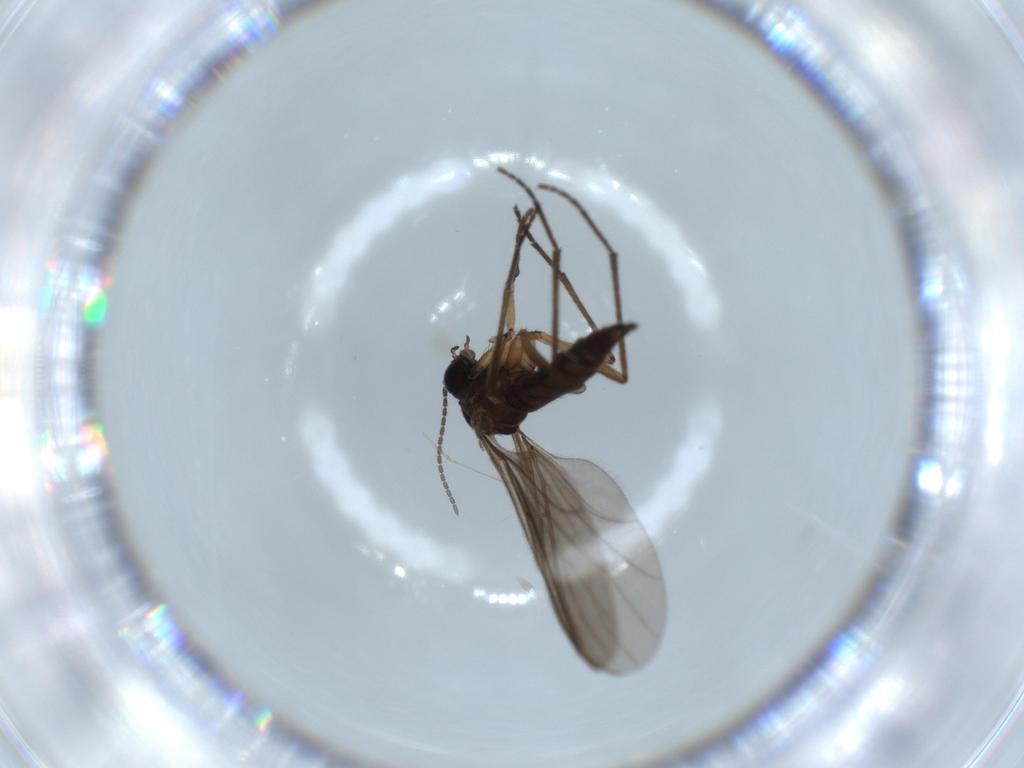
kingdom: Animalia
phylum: Arthropoda
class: Insecta
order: Diptera
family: Sciaridae
